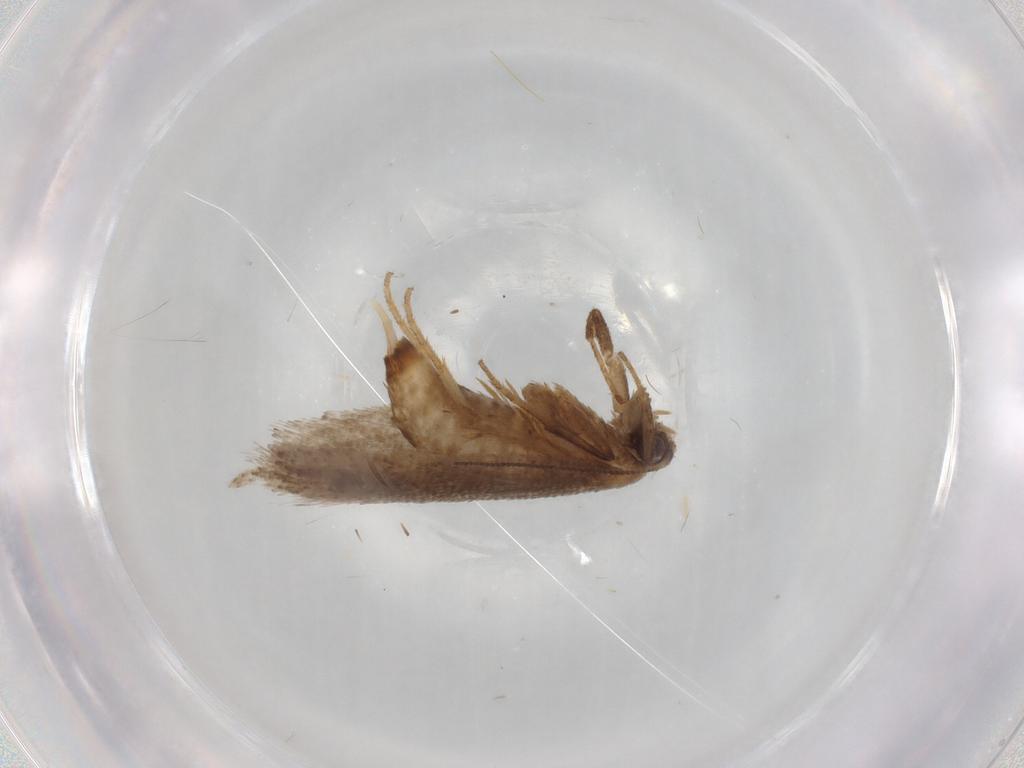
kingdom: Animalia
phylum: Arthropoda
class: Insecta
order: Lepidoptera
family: Nepticulidae
